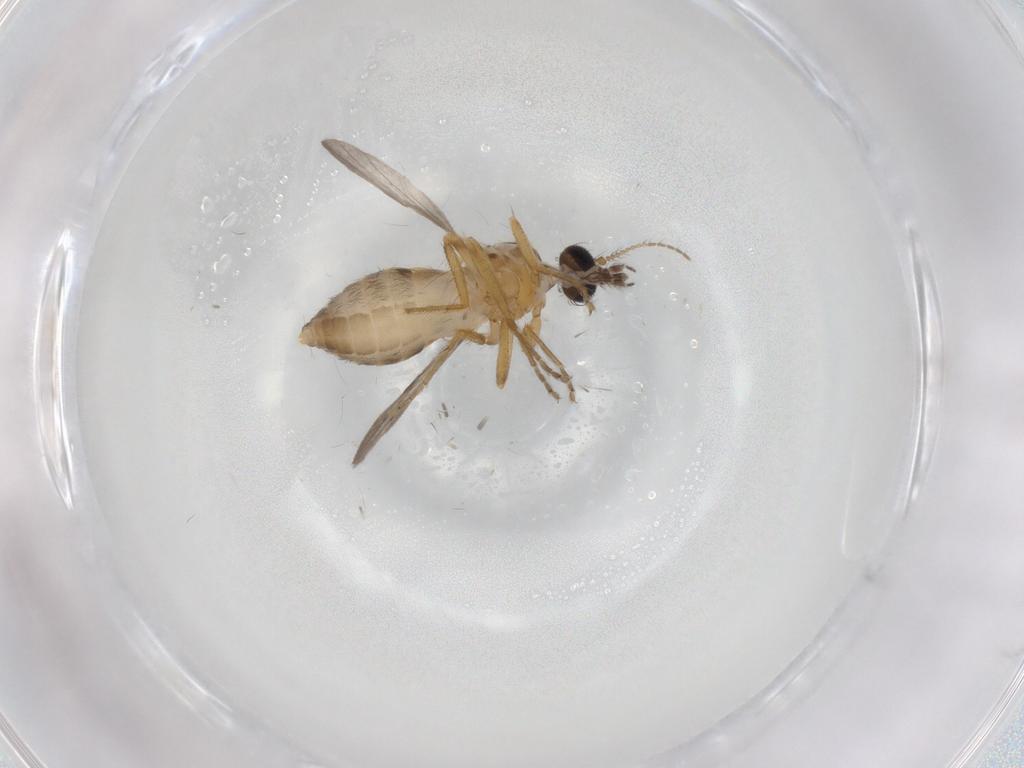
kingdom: Animalia
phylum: Arthropoda
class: Insecta
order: Diptera
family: Ceratopogonidae
